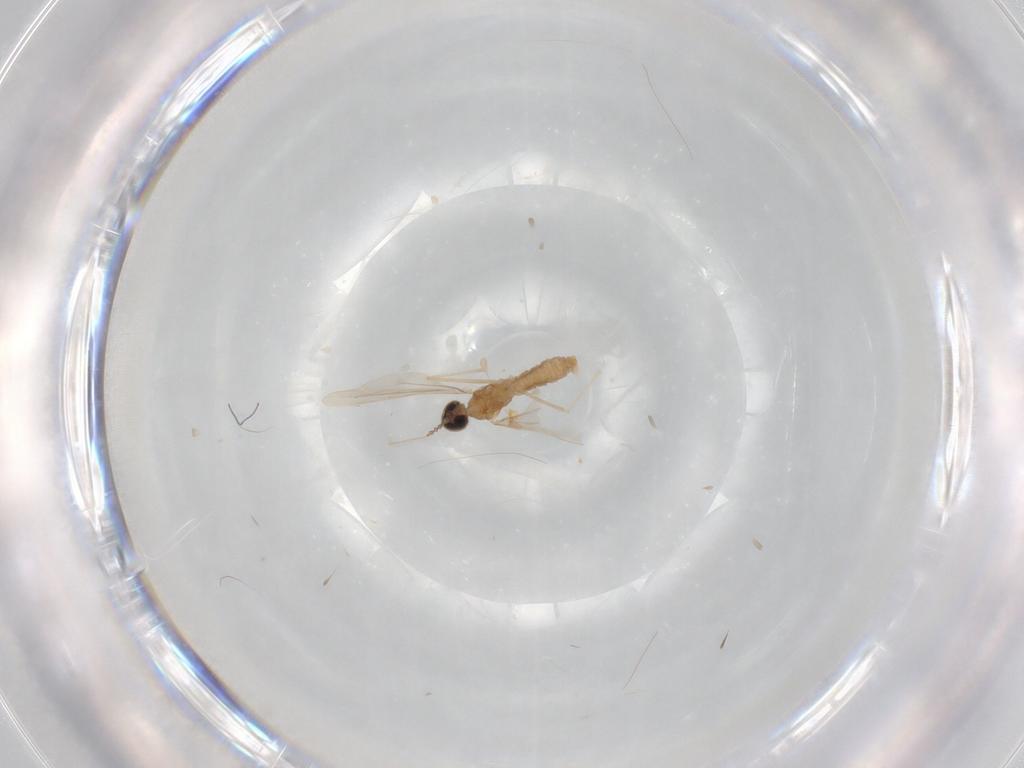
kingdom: Animalia
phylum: Arthropoda
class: Insecta
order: Diptera
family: Cecidomyiidae
